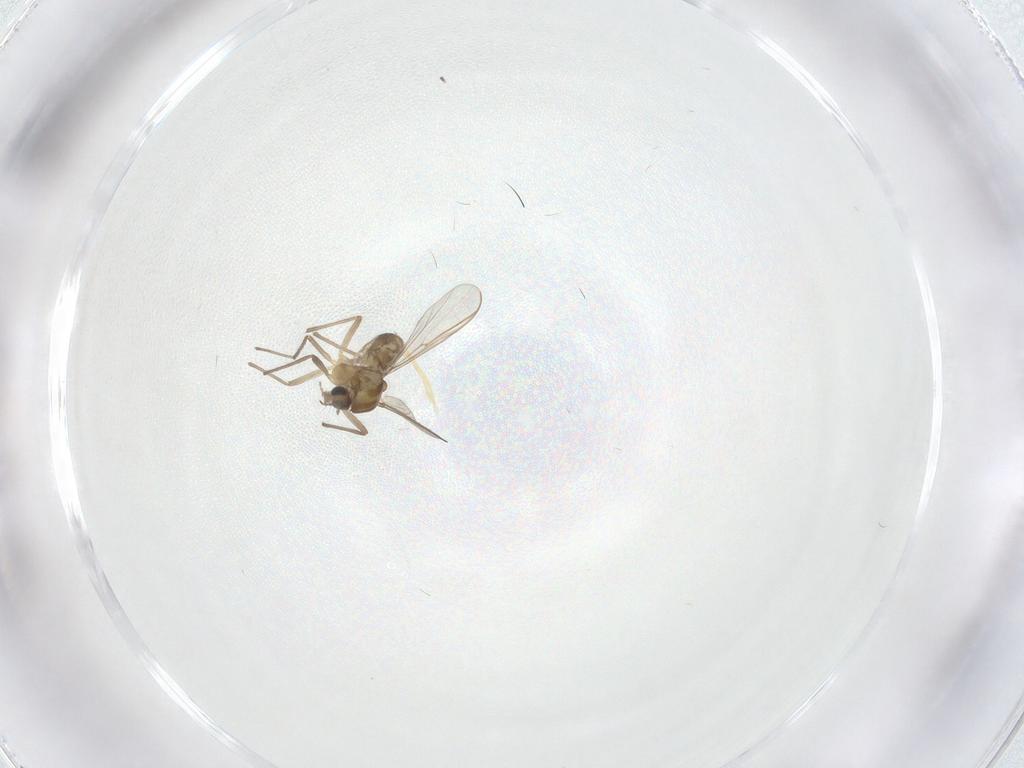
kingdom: Animalia
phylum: Arthropoda
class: Insecta
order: Diptera
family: Chironomidae
